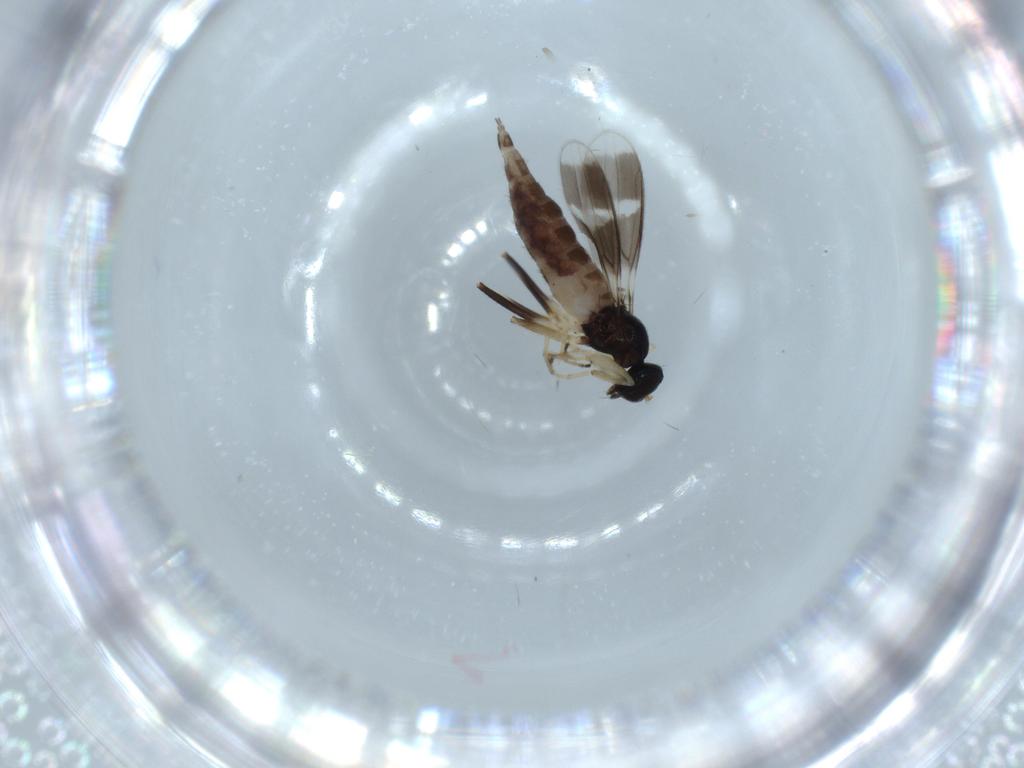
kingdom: Animalia
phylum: Arthropoda
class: Insecta
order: Diptera
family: Hybotidae
